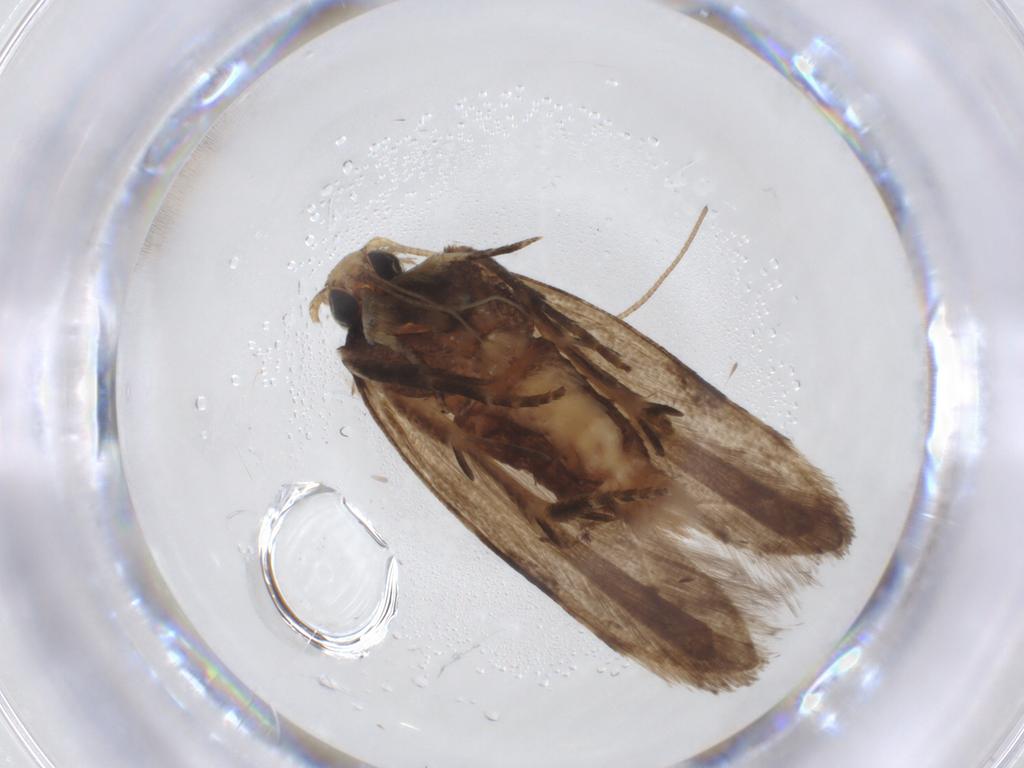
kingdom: Animalia
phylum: Arthropoda
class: Insecta
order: Lepidoptera
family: Gelechiidae
